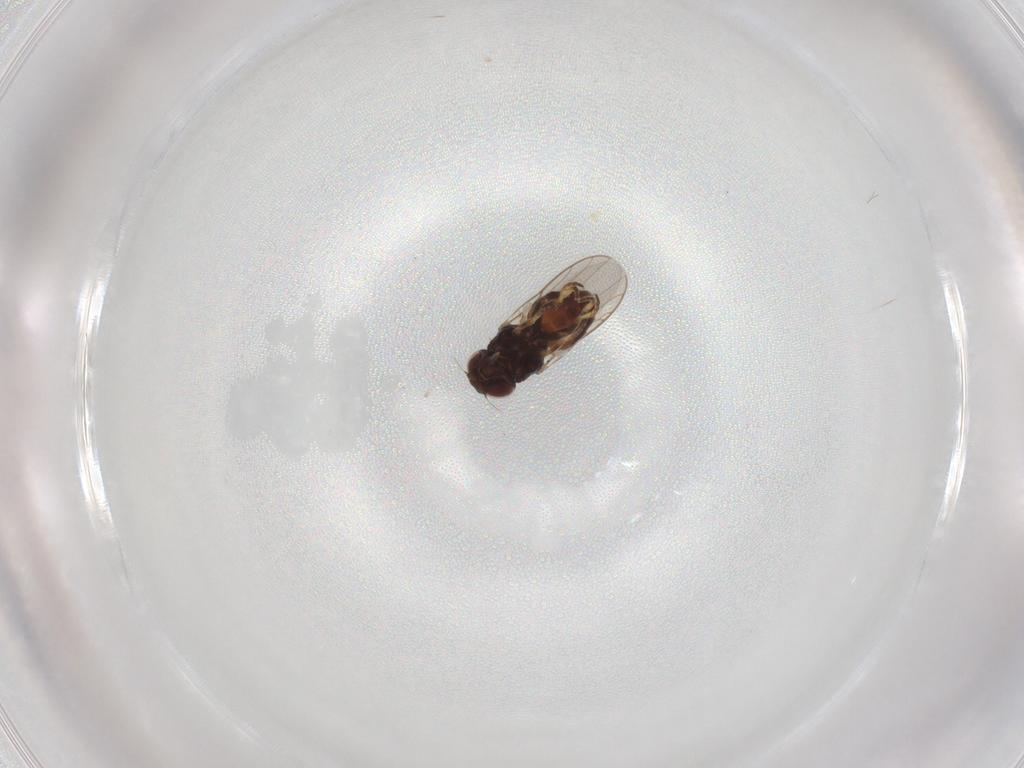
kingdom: Animalia
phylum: Arthropoda
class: Insecta
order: Diptera
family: Chloropidae
